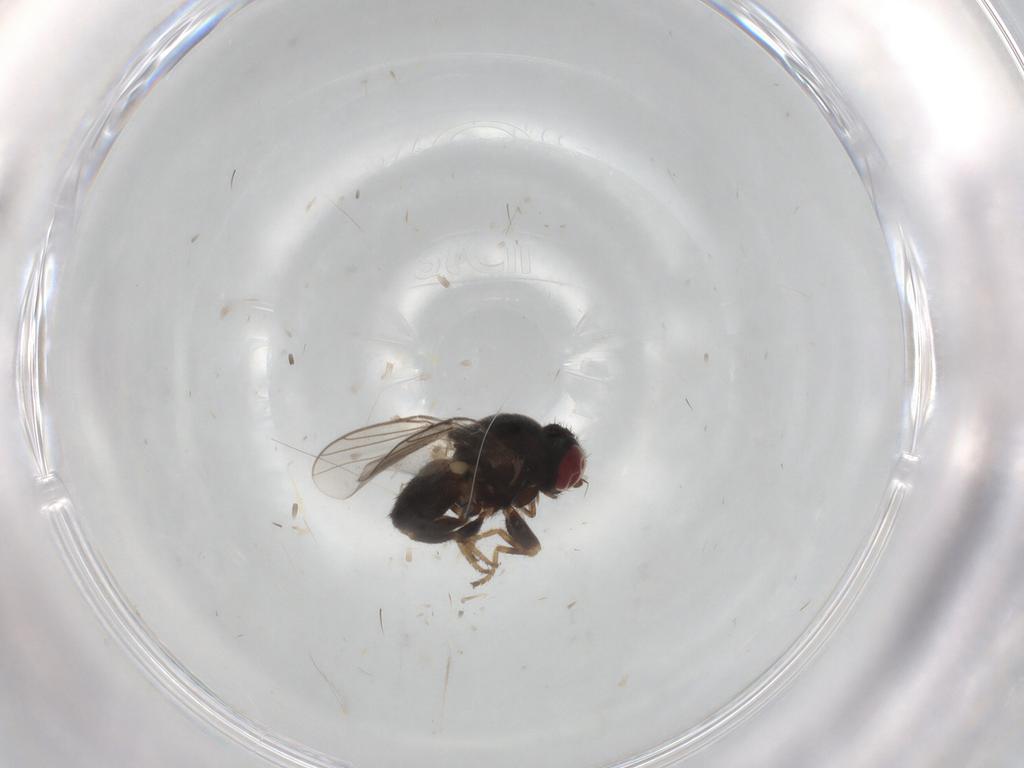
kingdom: Animalia
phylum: Arthropoda
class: Insecta
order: Diptera
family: Chloropidae
